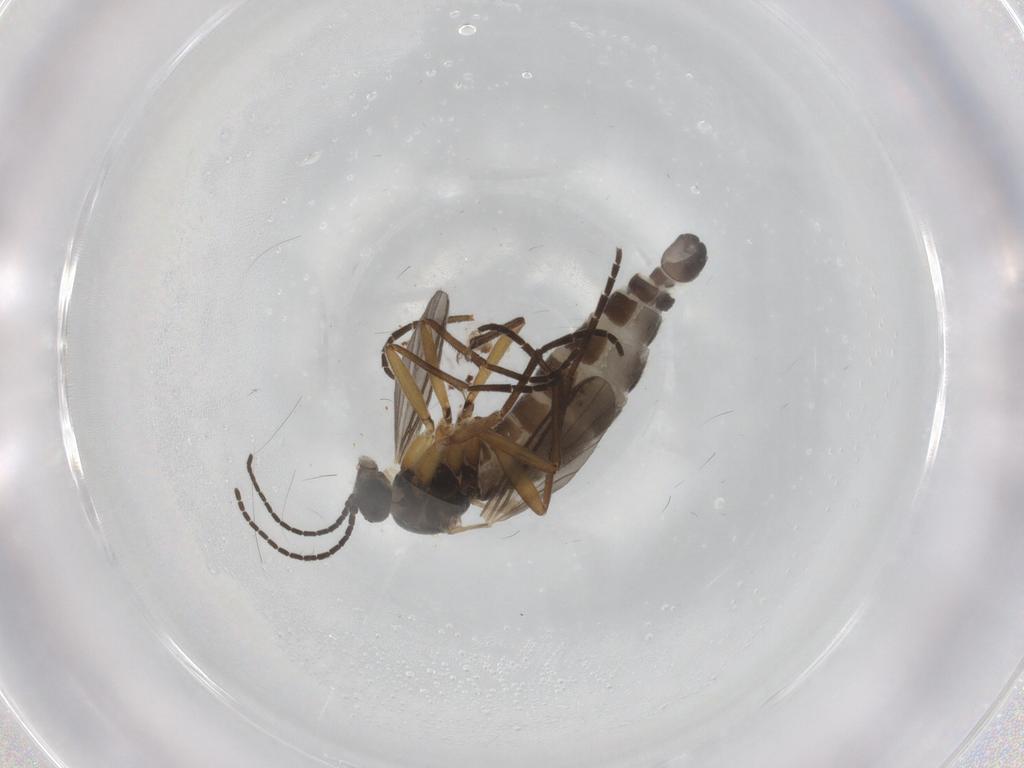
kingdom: Animalia
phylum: Arthropoda
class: Insecta
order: Diptera
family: Sciaridae
